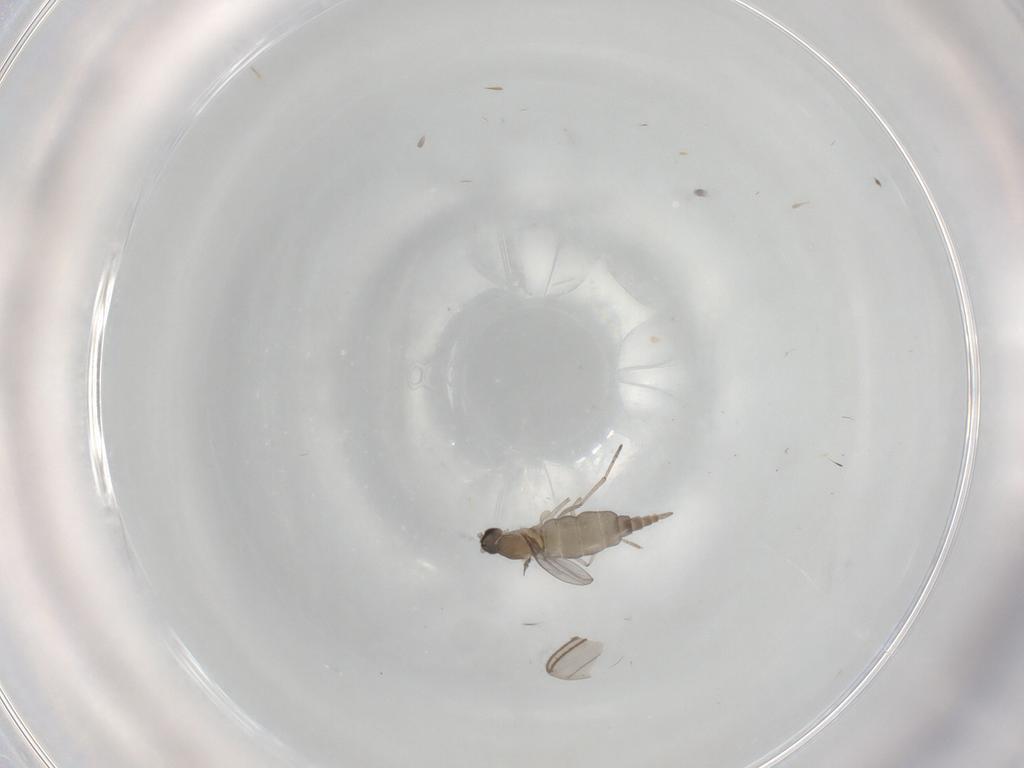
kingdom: Animalia
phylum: Arthropoda
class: Insecta
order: Diptera
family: Cecidomyiidae
